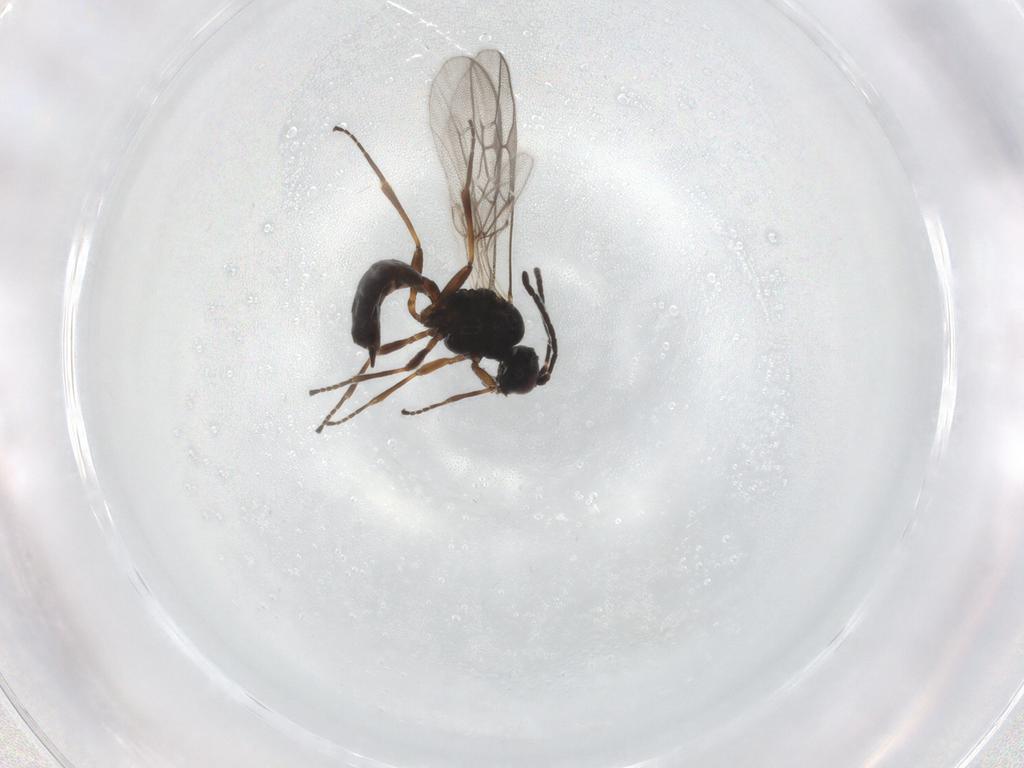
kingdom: Animalia
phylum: Arthropoda
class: Insecta
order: Hymenoptera
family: Braconidae
